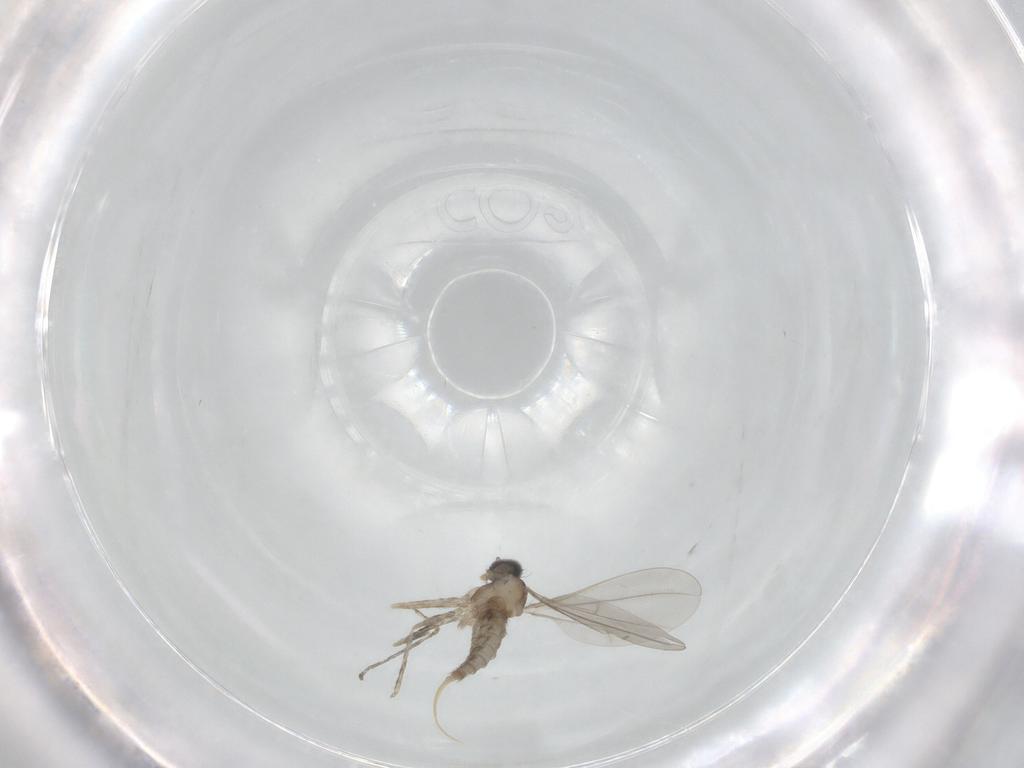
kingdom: Animalia
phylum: Arthropoda
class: Insecta
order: Diptera
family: Cecidomyiidae
